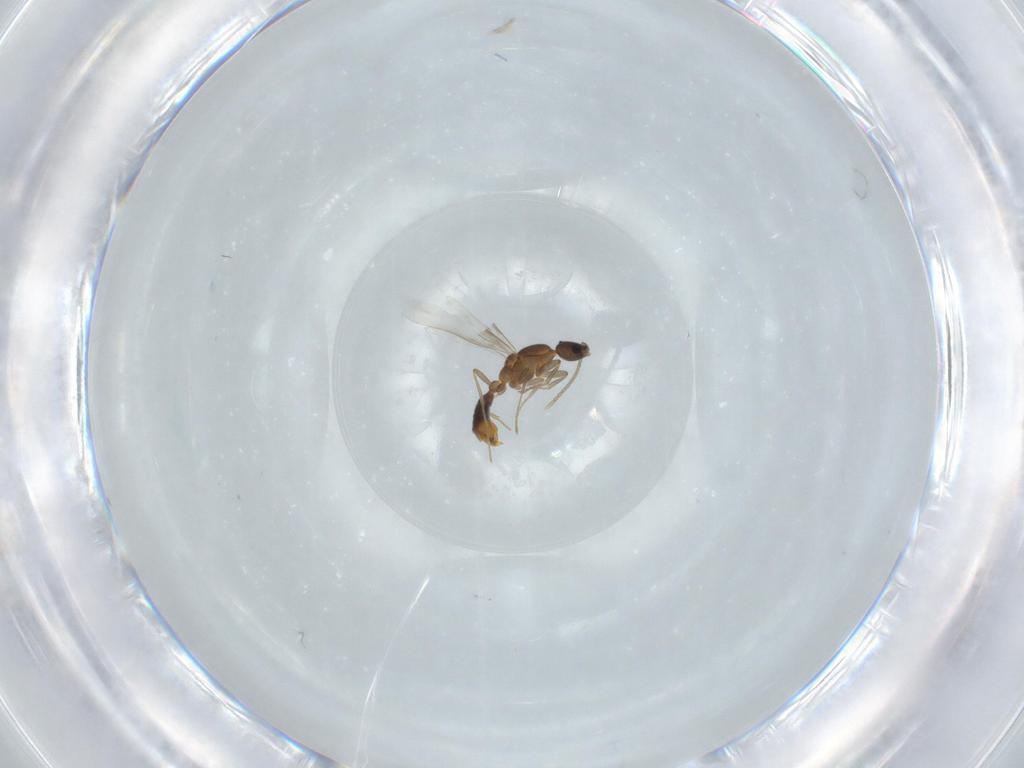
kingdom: Animalia
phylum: Arthropoda
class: Insecta
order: Hymenoptera
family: Formicidae
